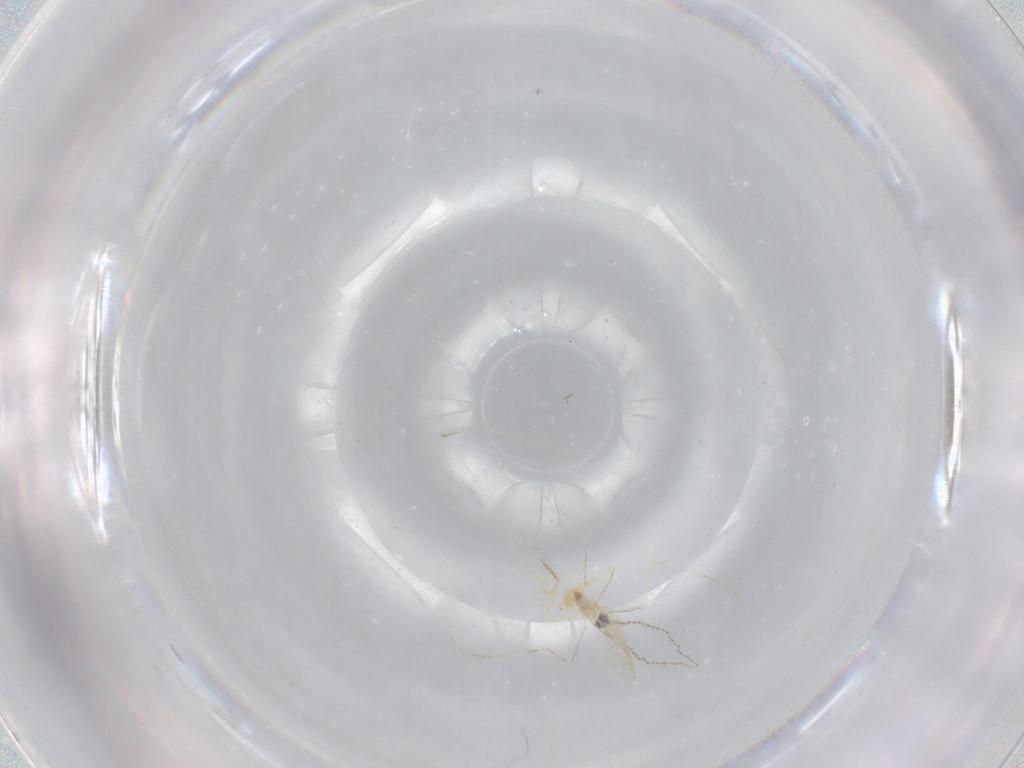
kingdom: Animalia
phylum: Arthropoda
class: Insecta
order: Diptera
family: Cecidomyiidae
